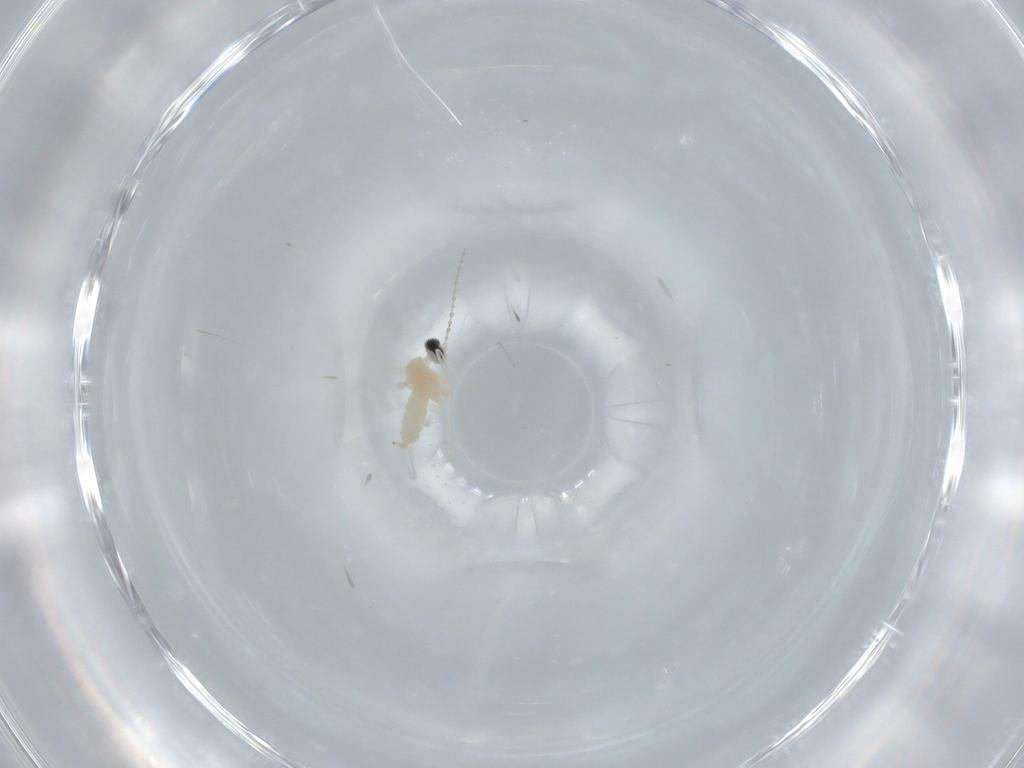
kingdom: Animalia
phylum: Arthropoda
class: Insecta
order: Diptera
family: Cecidomyiidae
